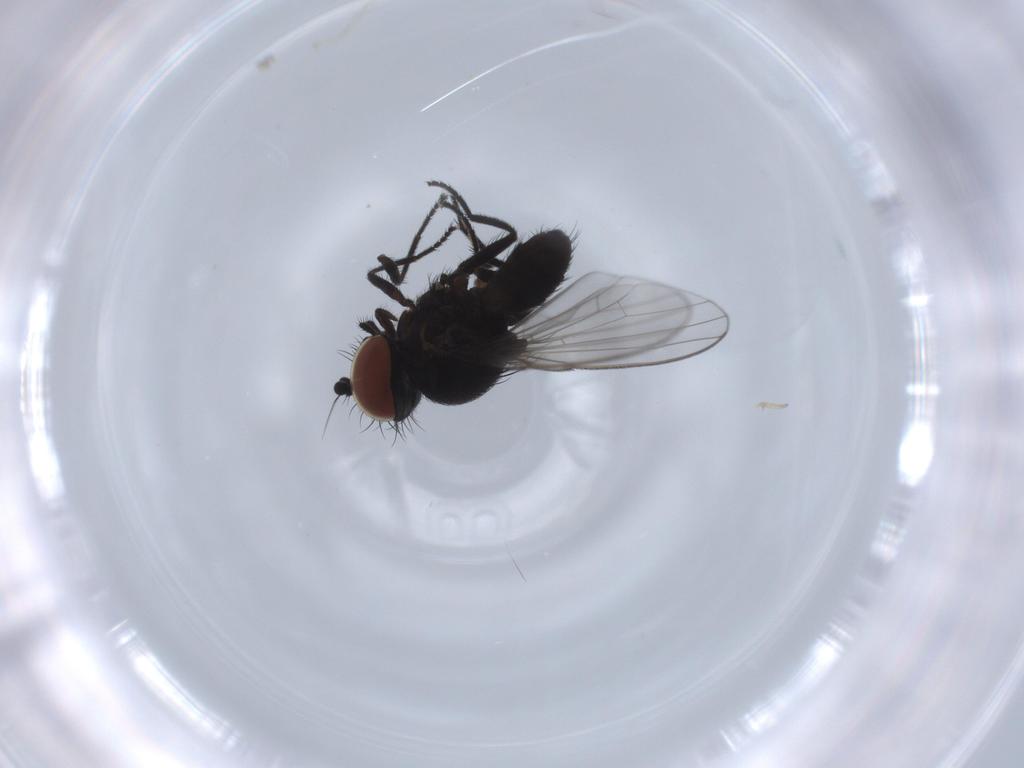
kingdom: Animalia
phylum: Arthropoda
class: Insecta
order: Diptera
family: Milichiidae
